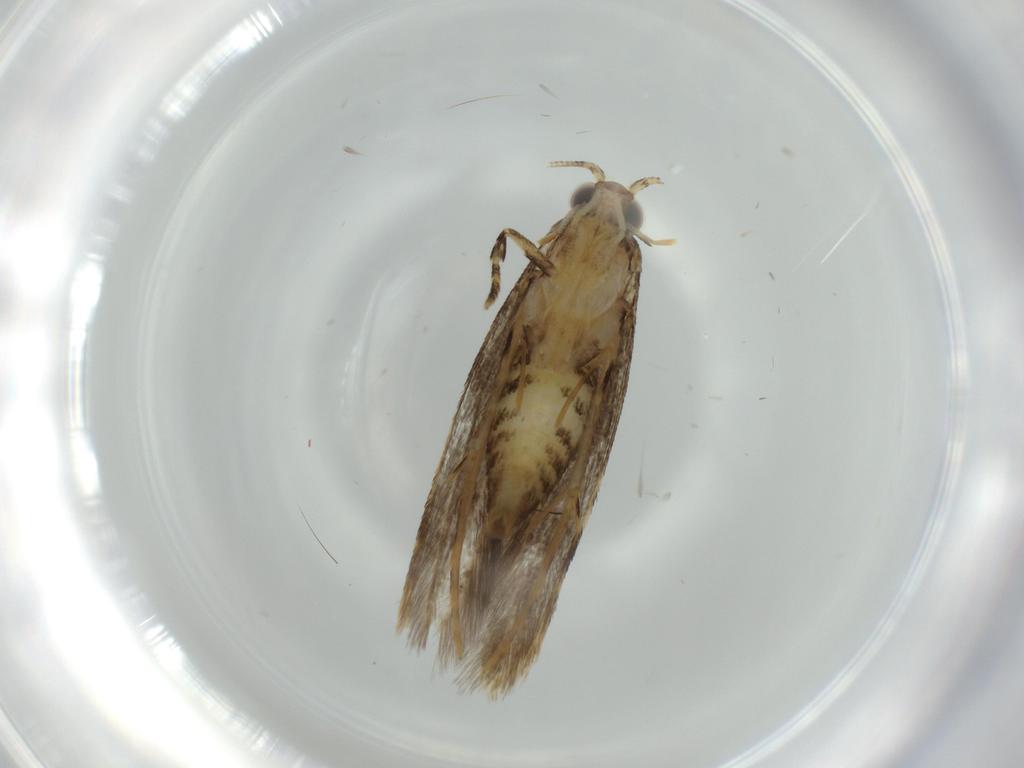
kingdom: Animalia
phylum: Arthropoda
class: Insecta
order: Lepidoptera
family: Tineidae
